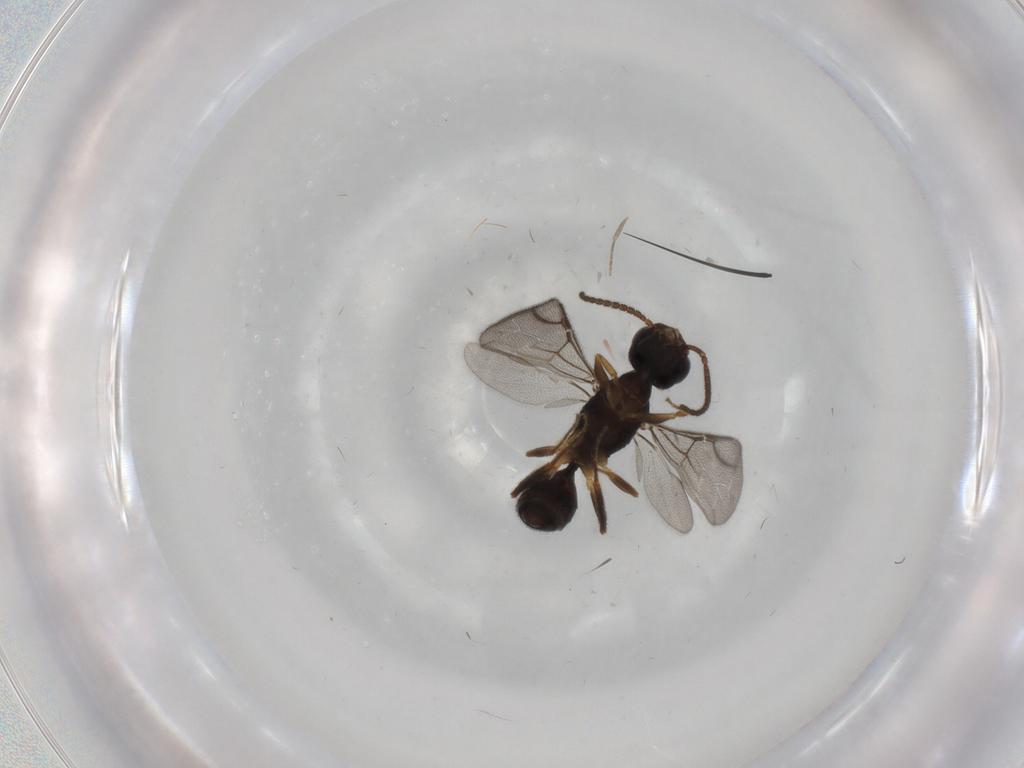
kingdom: Animalia
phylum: Arthropoda
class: Insecta
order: Hymenoptera
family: Bethylidae
